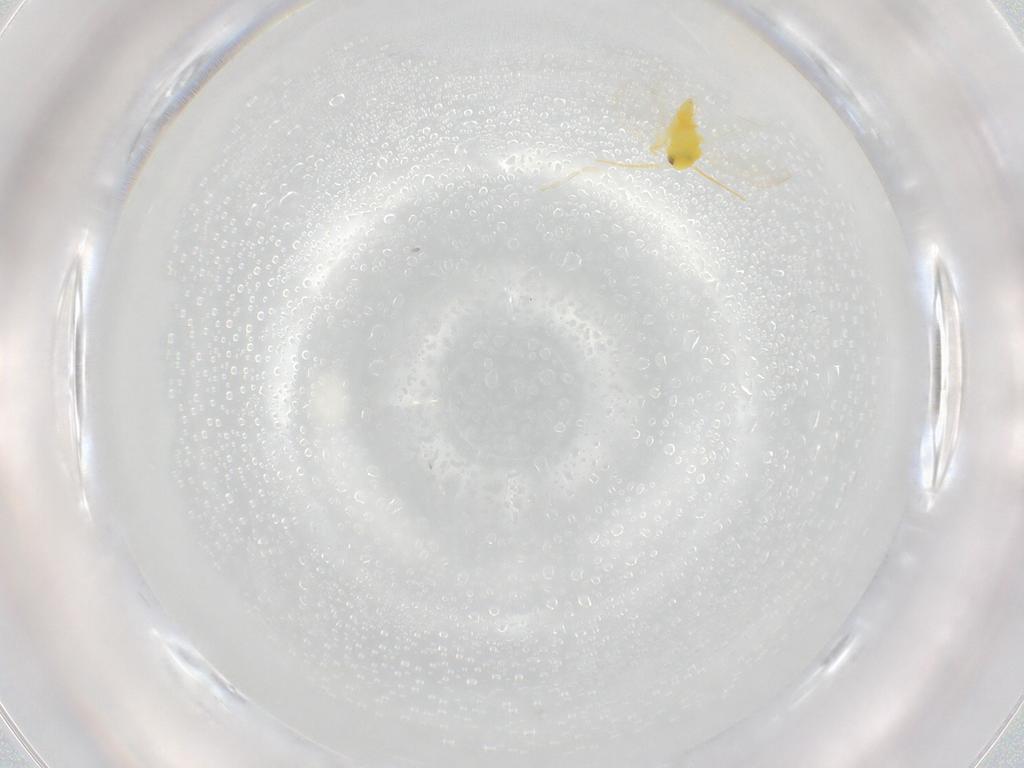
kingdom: Animalia
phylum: Arthropoda
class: Insecta
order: Hemiptera
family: Aleyrodidae
